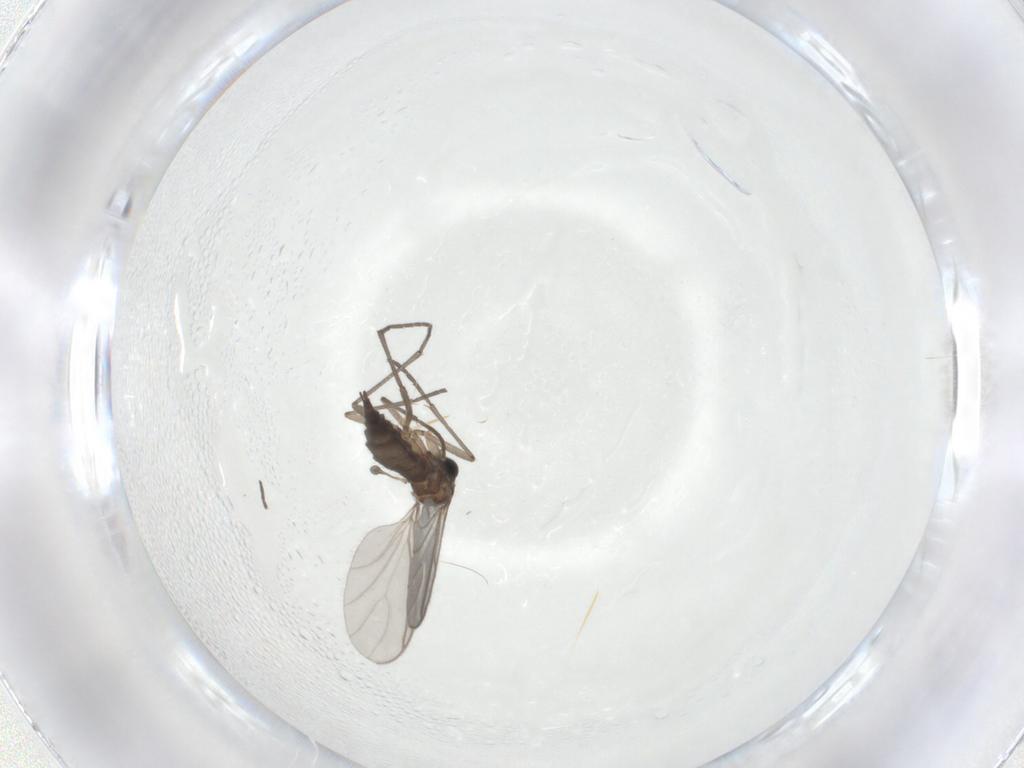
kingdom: Animalia
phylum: Arthropoda
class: Insecta
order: Diptera
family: Sciaridae
